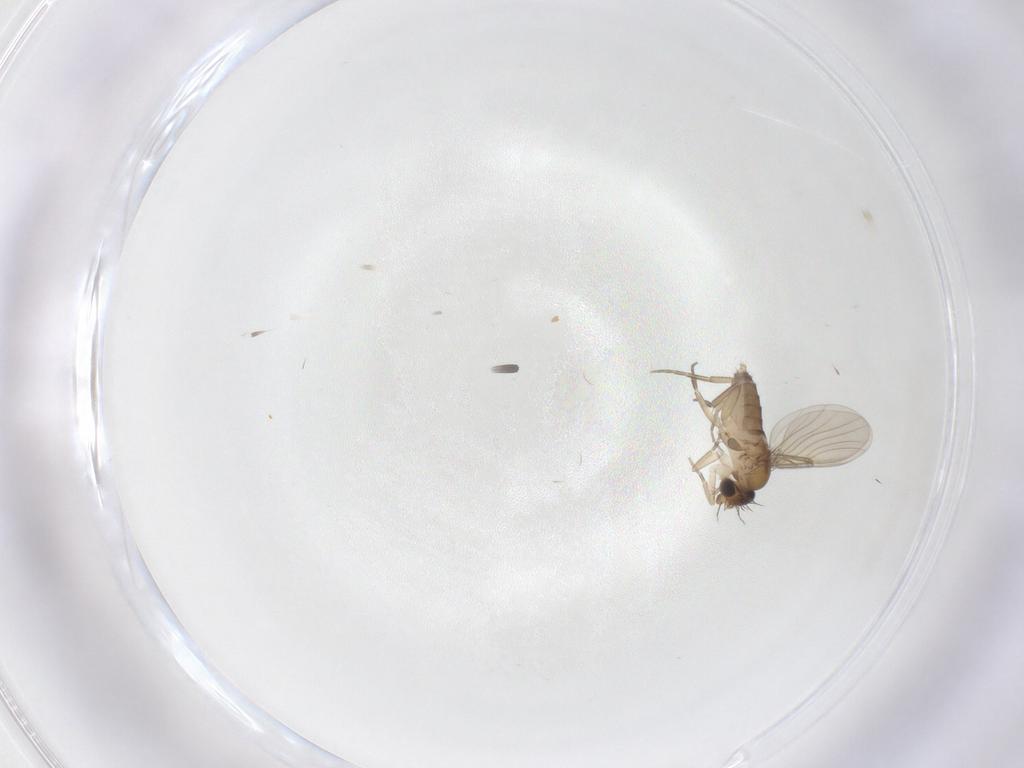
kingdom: Animalia
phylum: Arthropoda
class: Insecta
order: Diptera
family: Phoridae
